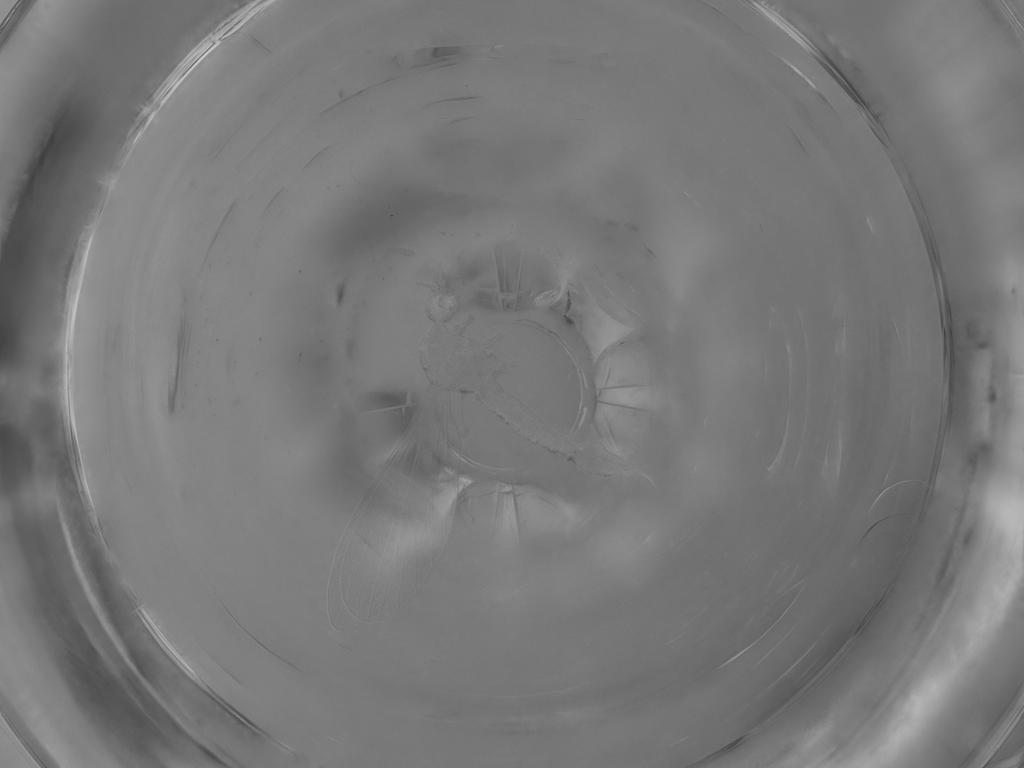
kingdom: Animalia
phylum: Arthropoda
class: Insecta
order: Diptera
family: Limoniidae
